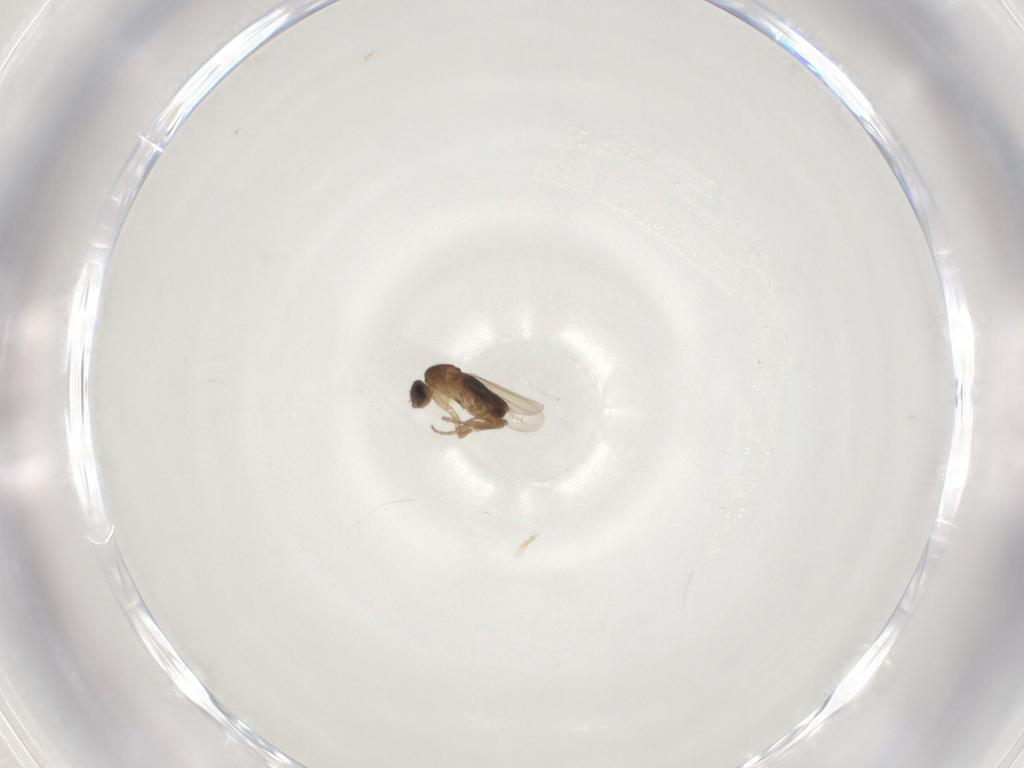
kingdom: Animalia
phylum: Arthropoda
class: Insecta
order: Diptera
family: Phoridae
